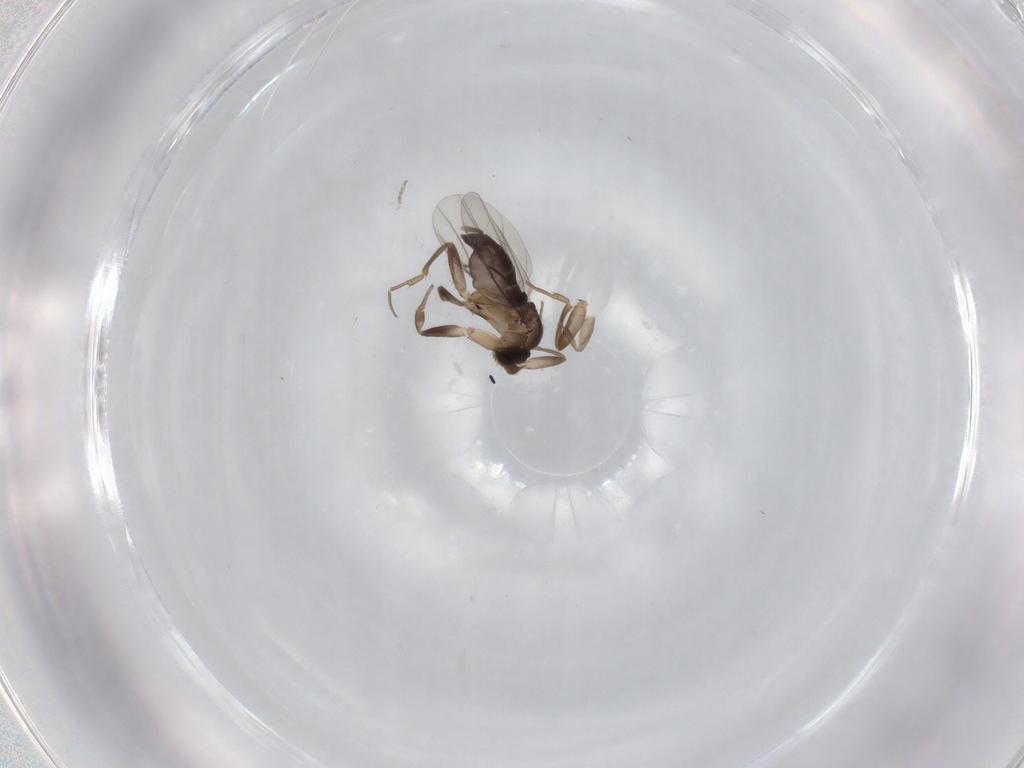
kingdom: Animalia
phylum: Arthropoda
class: Insecta
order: Diptera
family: Phoridae
